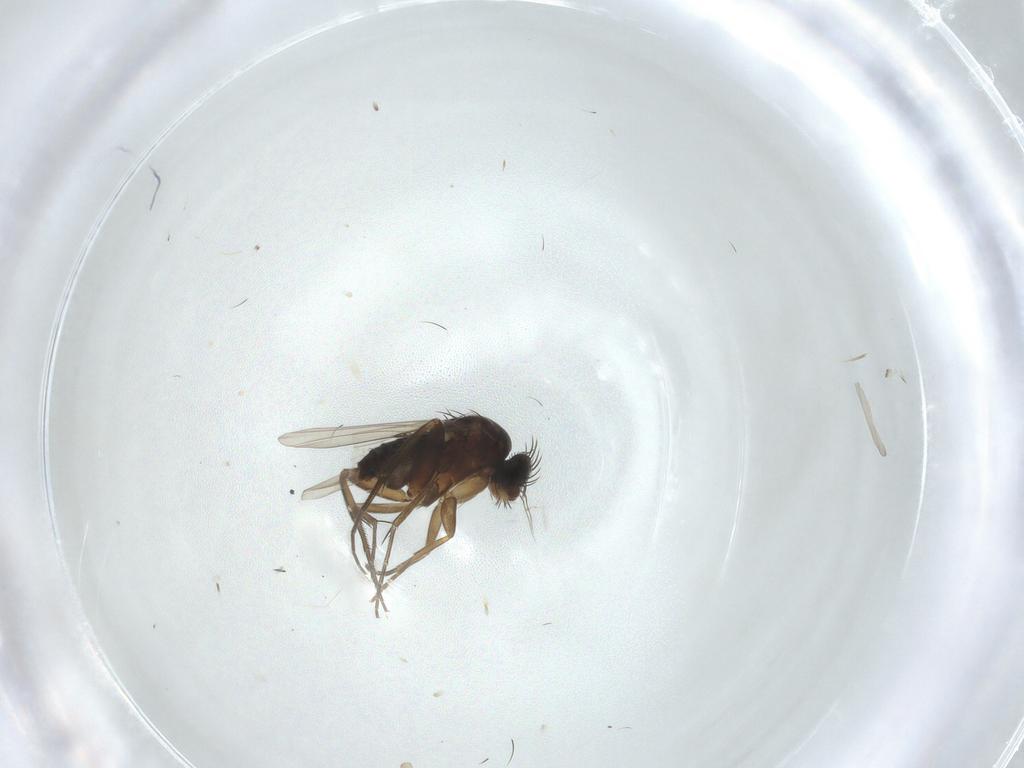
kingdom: Animalia
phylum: Arthropoda
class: Insecta
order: Diptera
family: Phoridae
